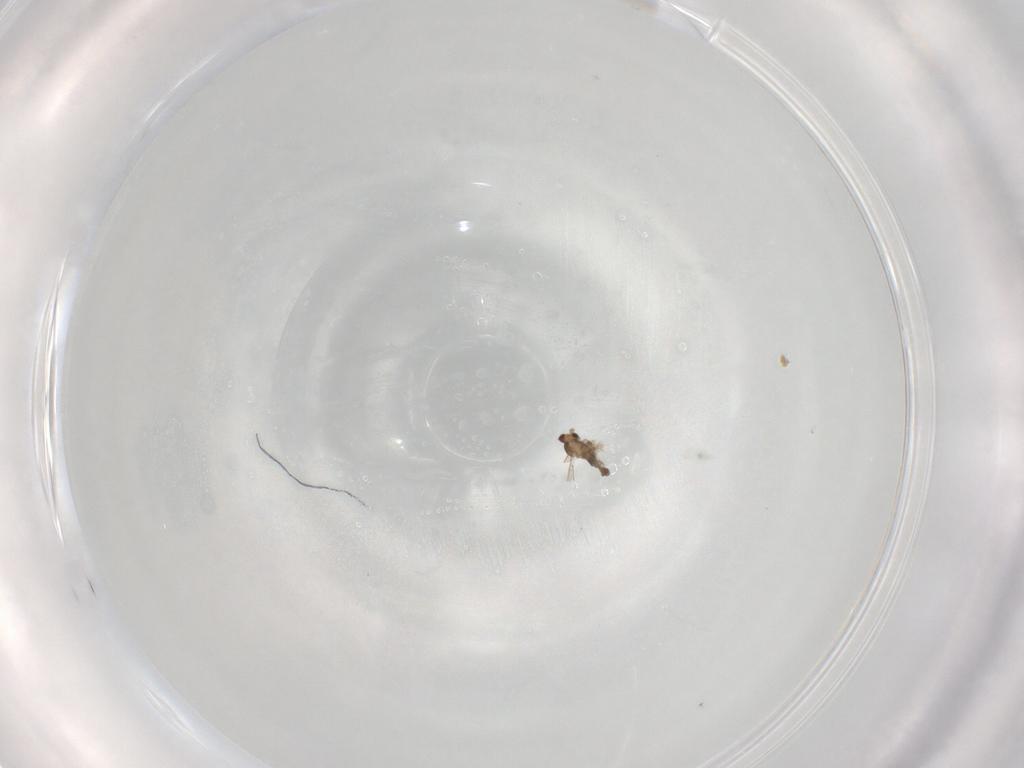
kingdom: Animalia
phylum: Arthropoda
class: Insecta
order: Diptera
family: Cecidomyiidae
